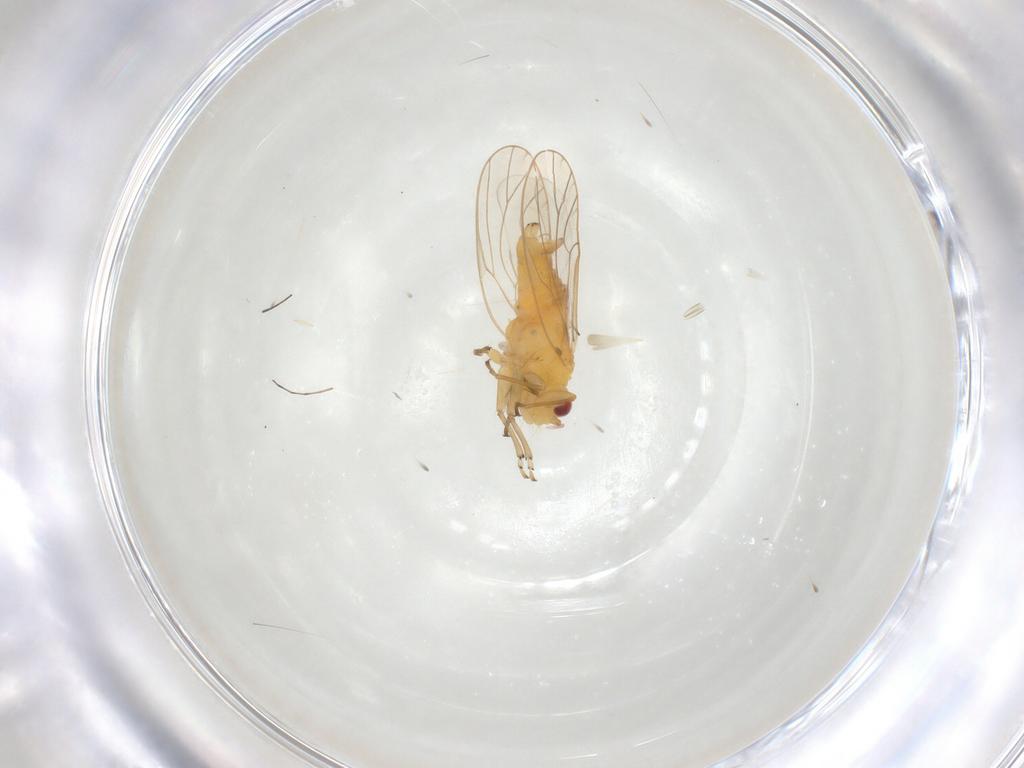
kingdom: Animalia
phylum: Arthropoda
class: Insecta
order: Hemiptera
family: Psyllidae
